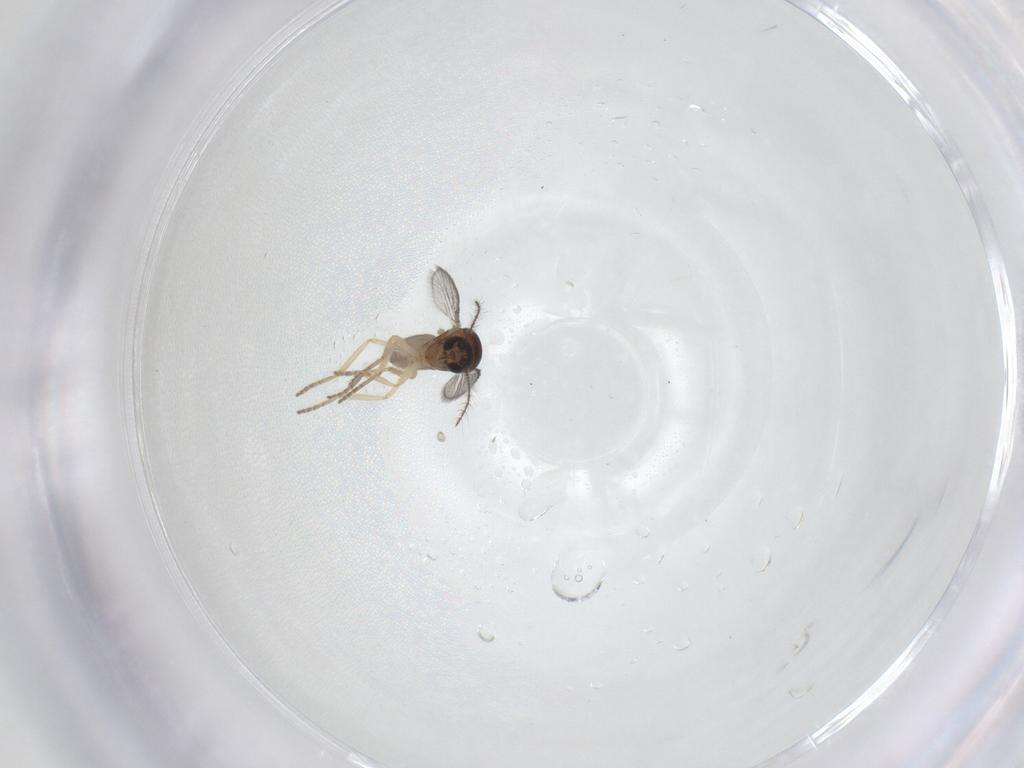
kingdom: Animalia
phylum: Arthropoda
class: Insecta
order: Diptera
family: Ceratopogonidae
